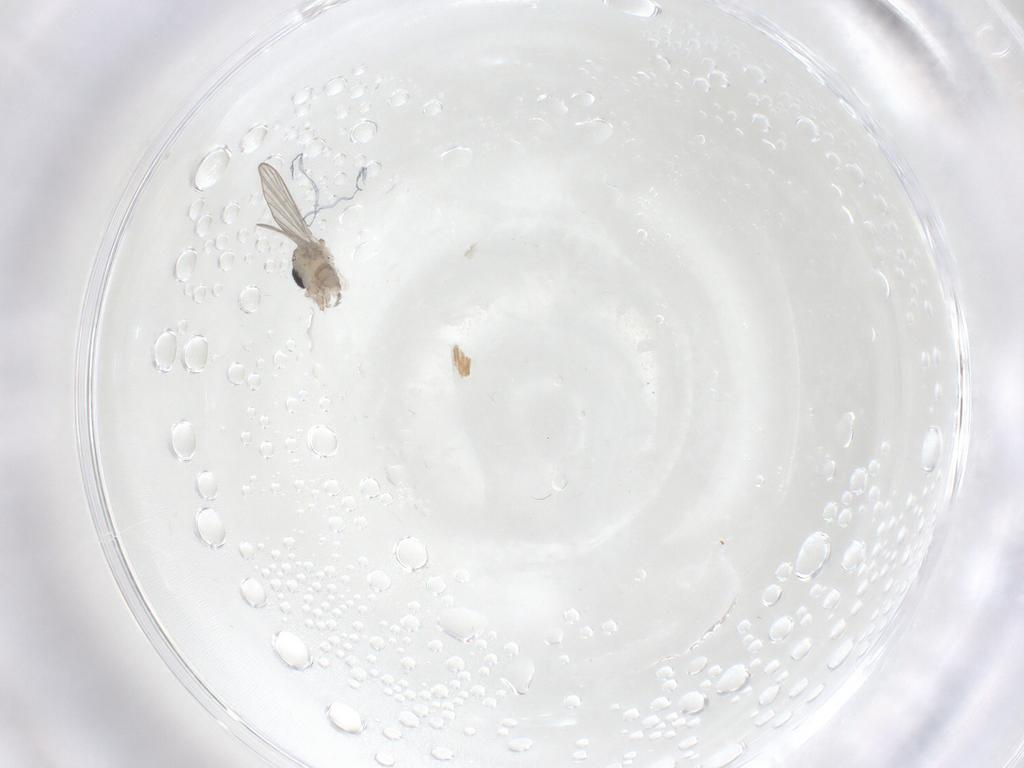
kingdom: Animalia
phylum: Arthropoda
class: Insecta
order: Diptera
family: Psychodidae
